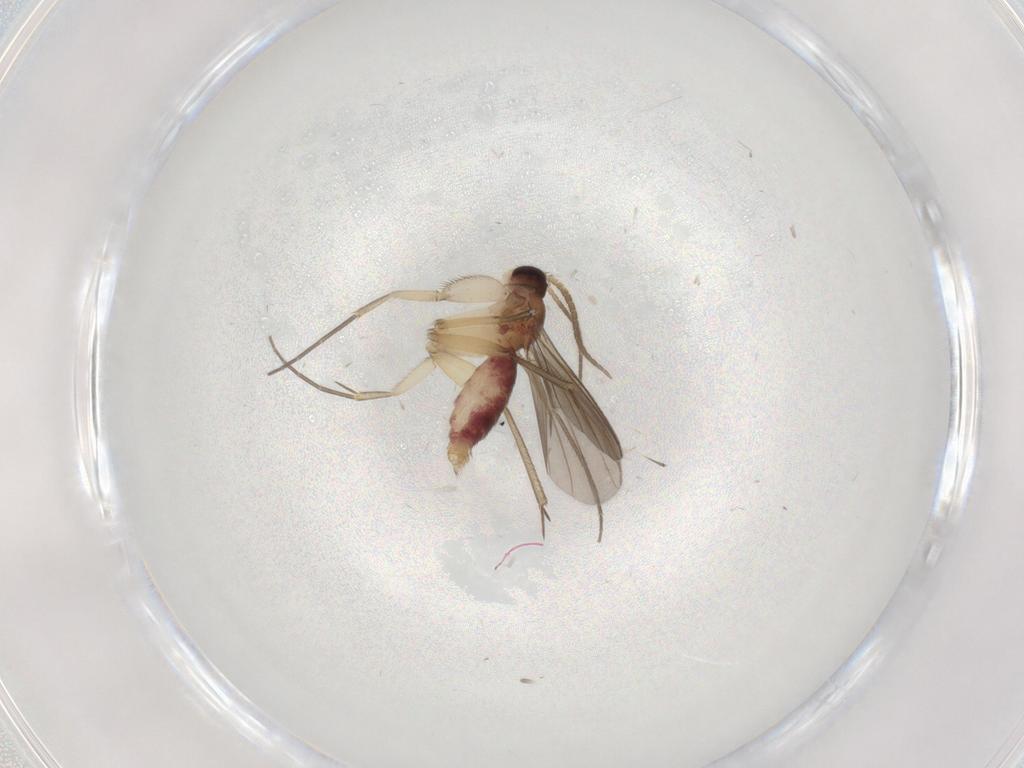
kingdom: Animalia
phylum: Arthropoda
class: Insecta
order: Diptera
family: Mycetophilidae
